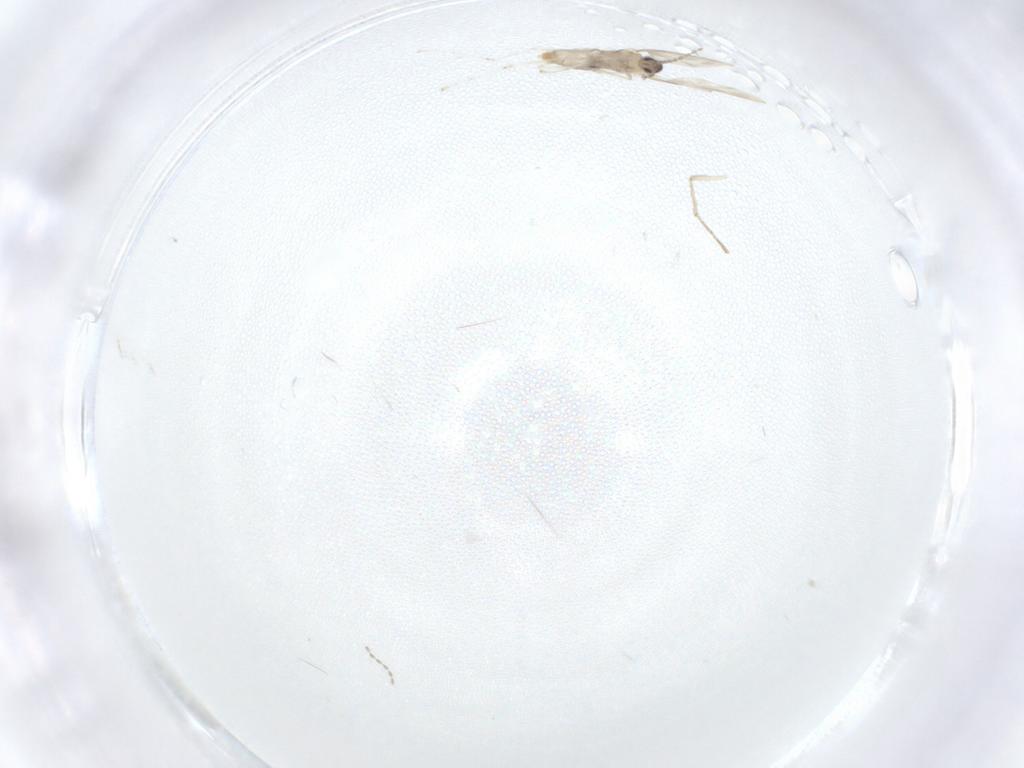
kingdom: Animalia
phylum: Arthropoda
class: Insecta
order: Diptera
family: Cecidomyiidae
